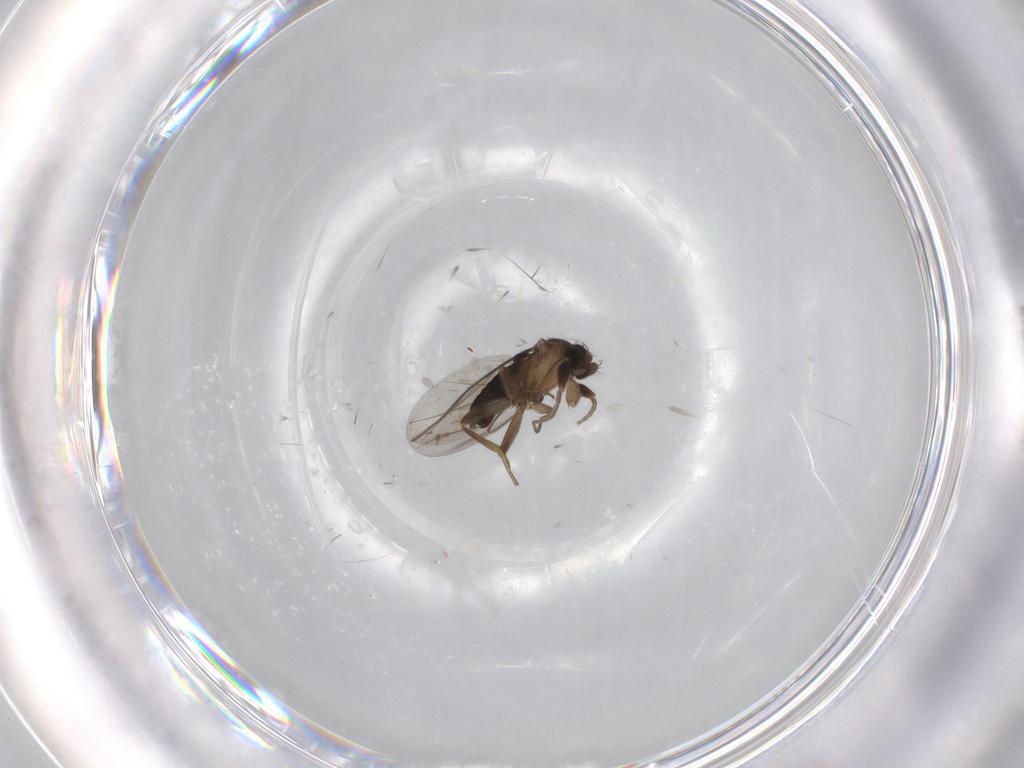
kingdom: Animalia
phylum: Arthropoda
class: Insecta
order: Diptera
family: Phoridae
